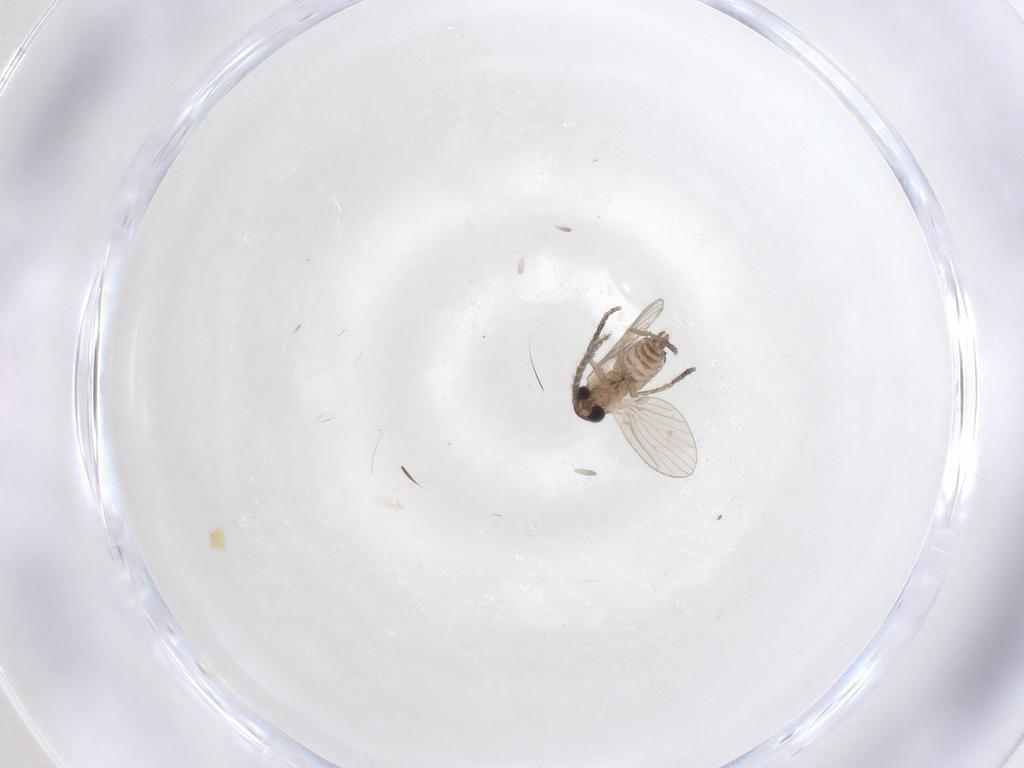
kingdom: Animalia
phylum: Arthropoda
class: Insecta
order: Diptera
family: Cecidomyiidae
